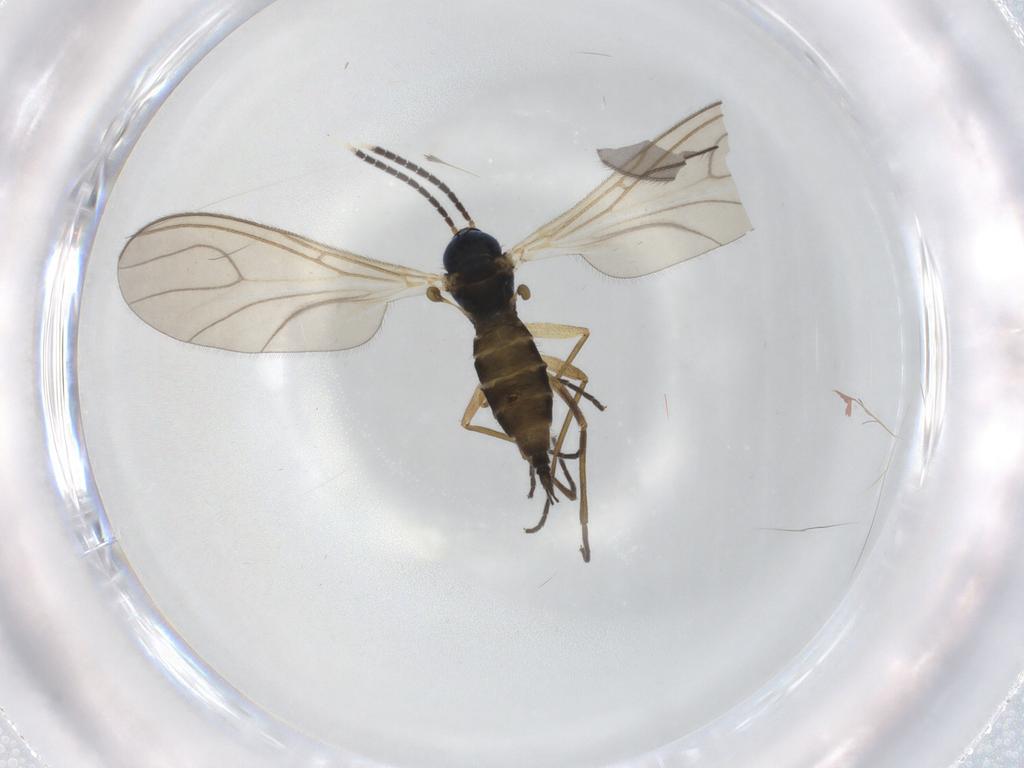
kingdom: Animalia
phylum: Arthropoda
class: Insecta
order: Diptera
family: Sciaridae
